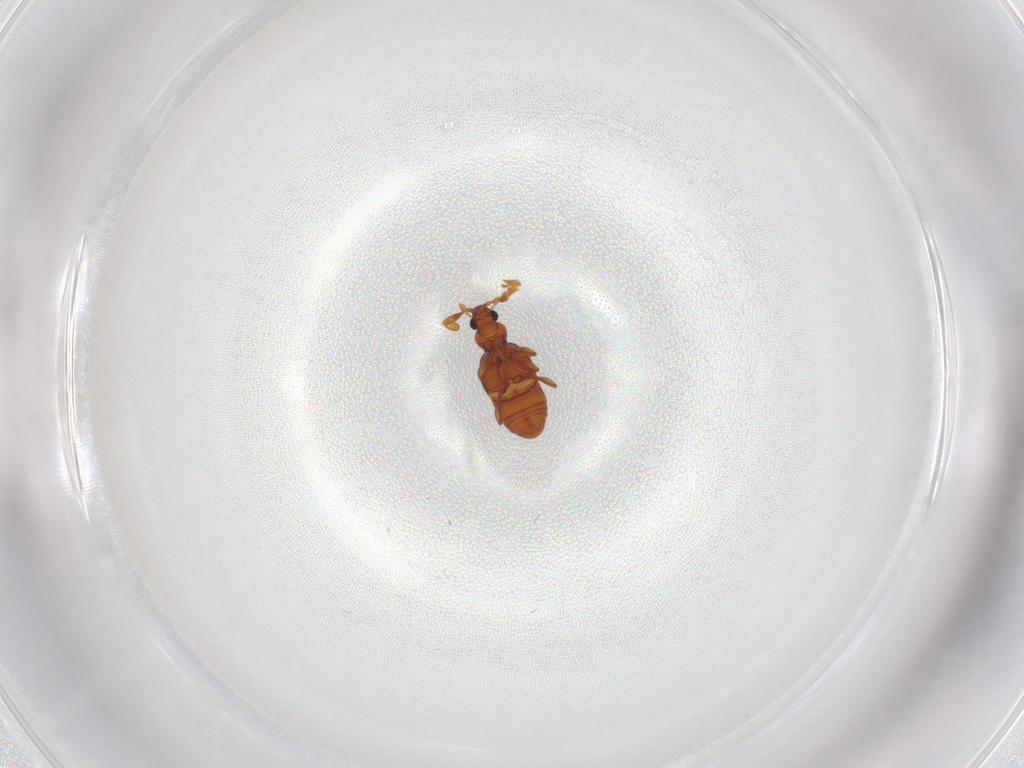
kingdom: Animalia
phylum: Arthropoda
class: Insecta
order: Coleoptera
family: Staphylinidae
